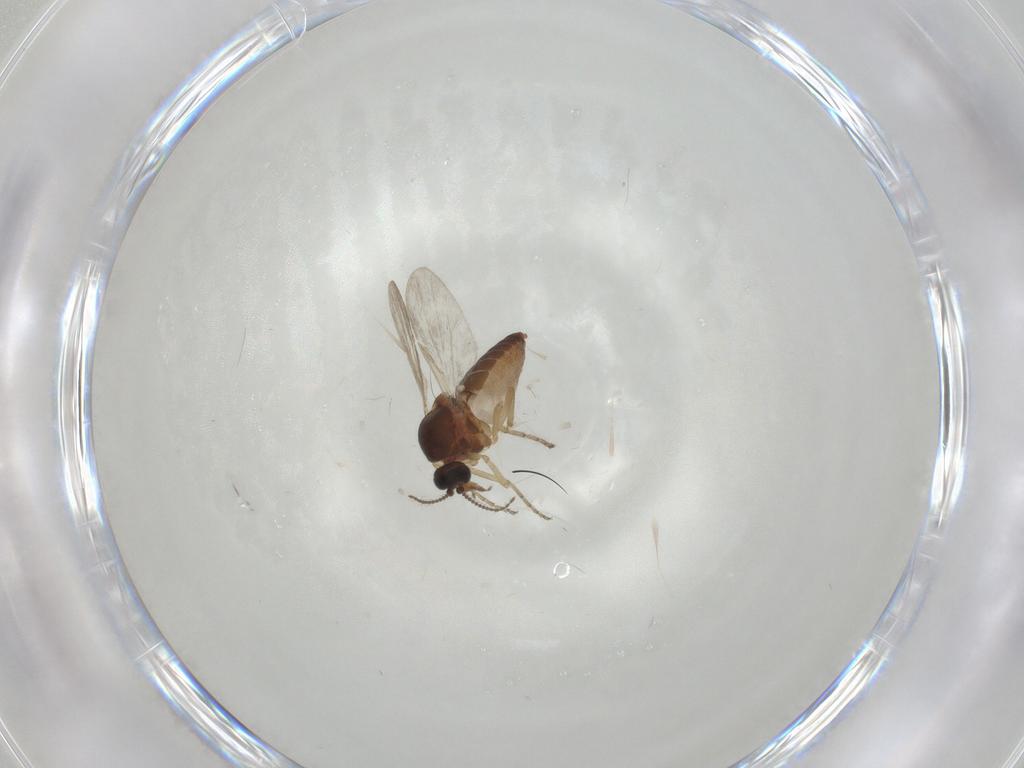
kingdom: Animalia
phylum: Arthropoda
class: Insecta
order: Diptera
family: Ceratopogonidae
